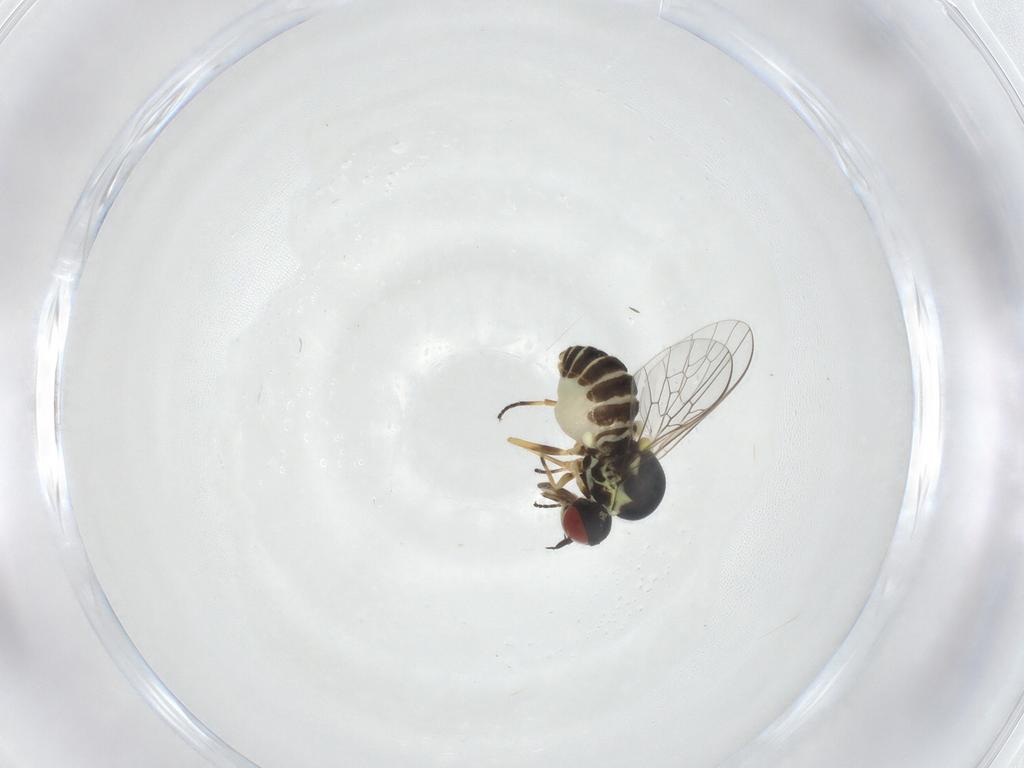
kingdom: Animalia
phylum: Arthropoda
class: Insecta
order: Diptera
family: Bombyliidae
